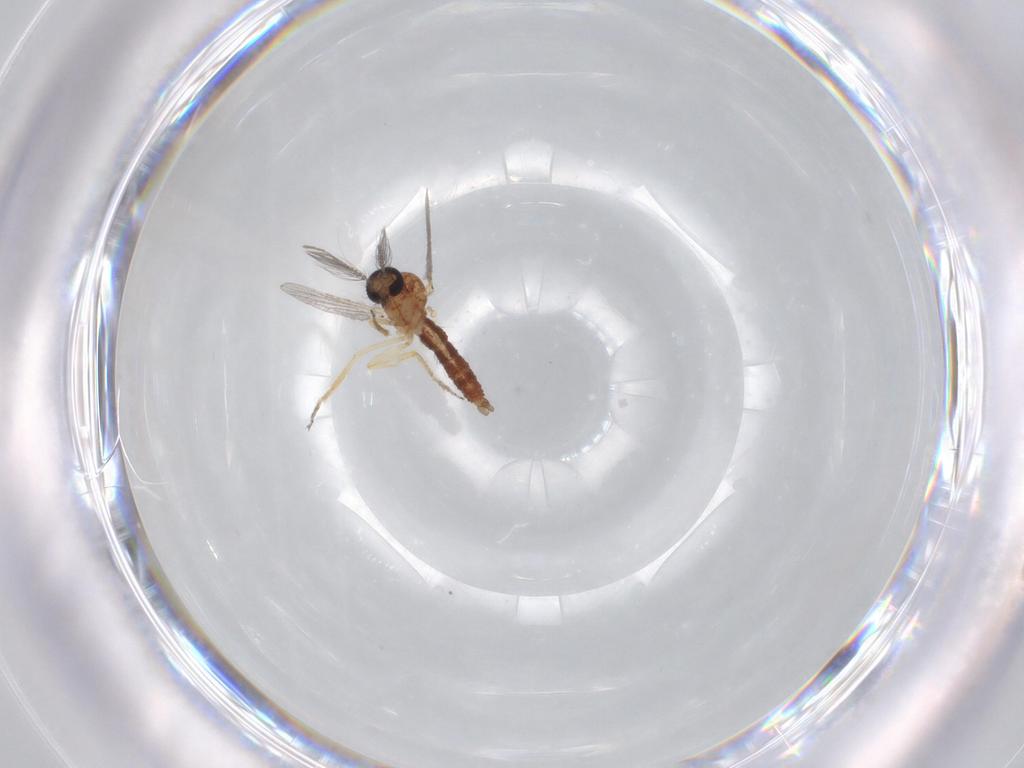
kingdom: Animalia
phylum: Arthropoda
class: Insecta
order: Diptera
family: Ceratopogonidae
